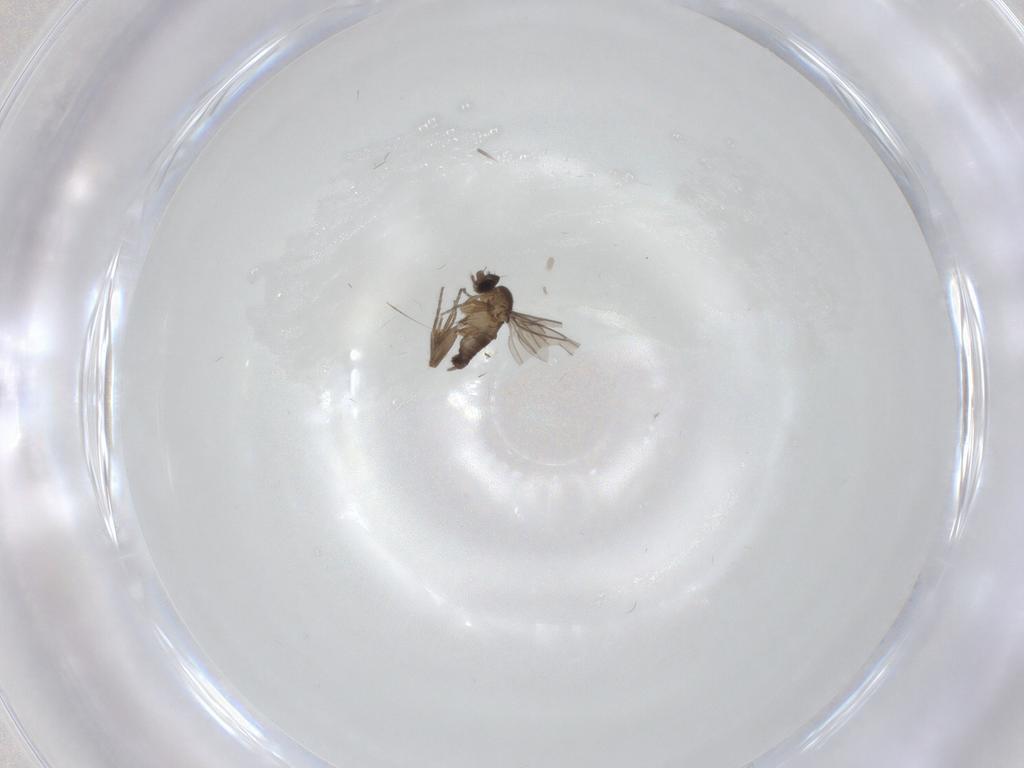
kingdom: Animalia
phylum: Arthropoda
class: Insecta
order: Diptera
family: Phoridae
